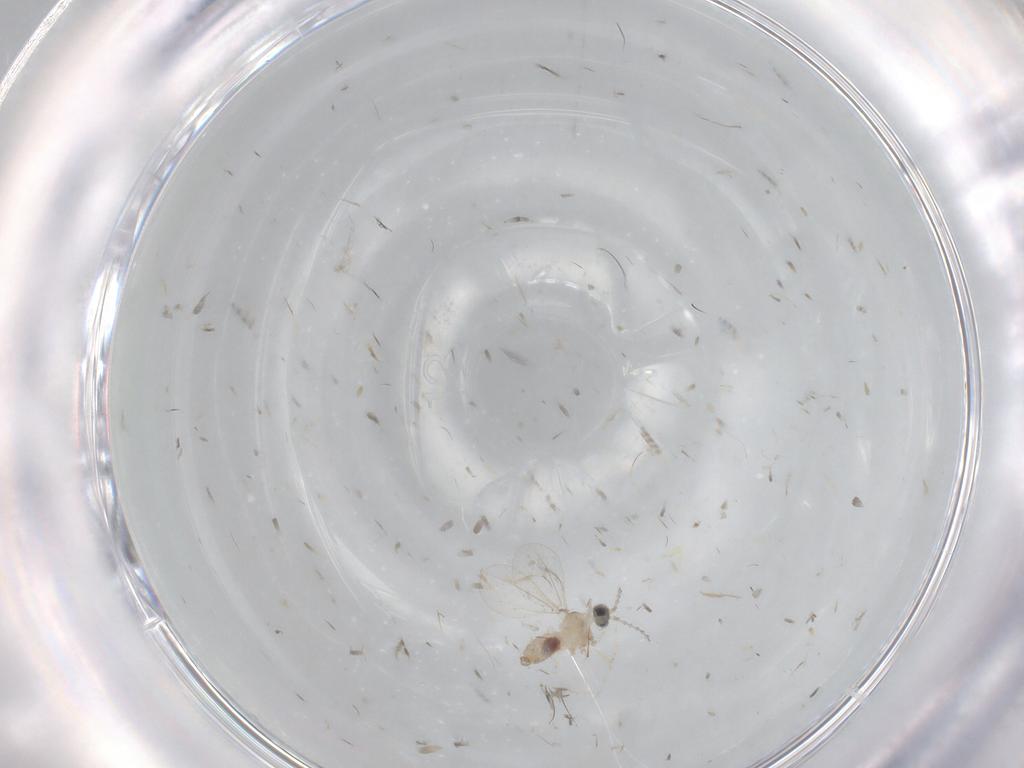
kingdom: Animalia
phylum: Arthropoda
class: Insecta
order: Diptera
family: Cecidomyiidae
